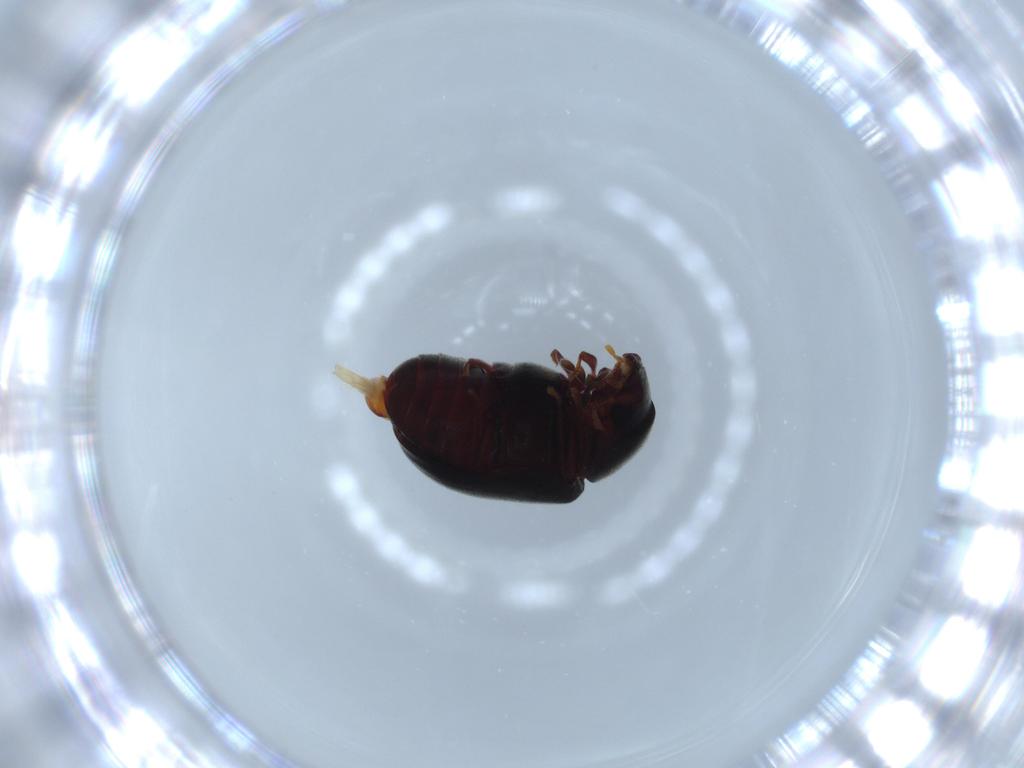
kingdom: Animalia
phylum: Arthropoda
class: Insecta
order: Coleoptera
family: Ptinidae
